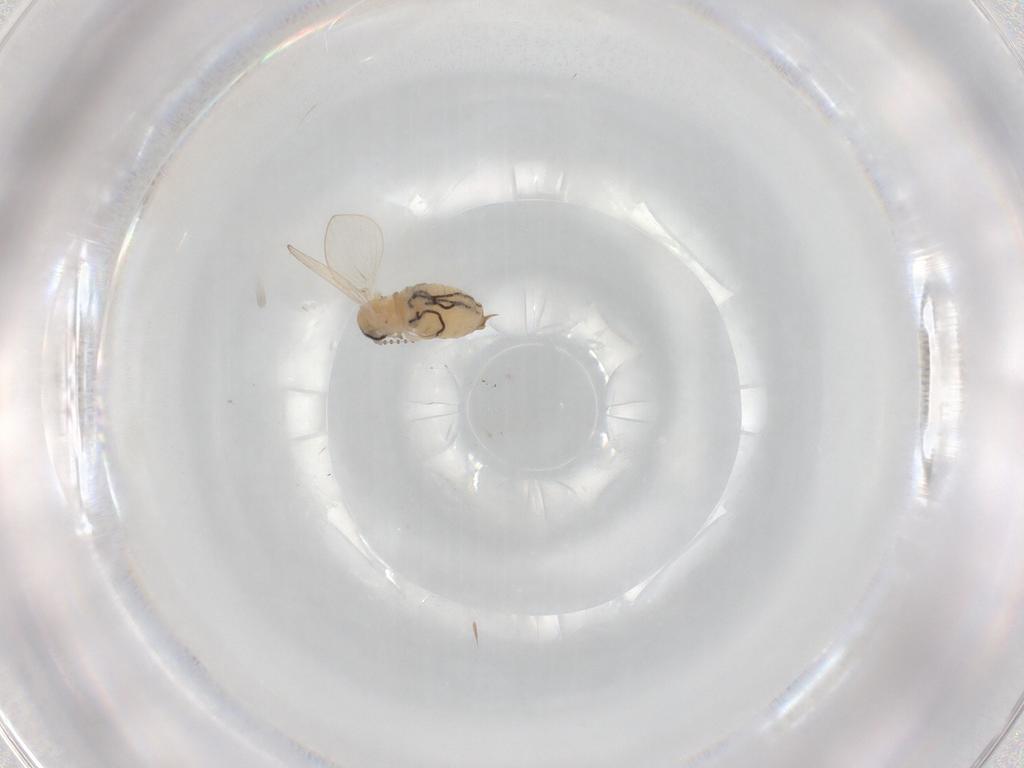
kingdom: Animalia
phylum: Arthropoda
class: Insecta
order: Diptera
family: Psychodidae
